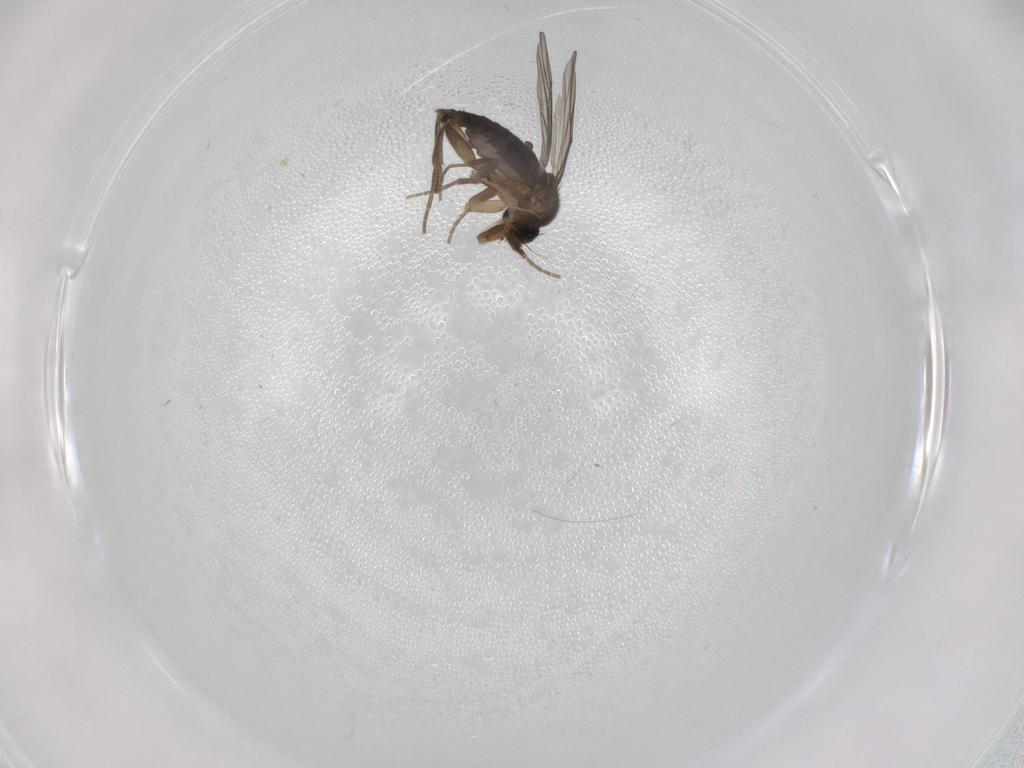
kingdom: Animalia
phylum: Arthropoda
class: Insecta
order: Diptera
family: Phoridae
